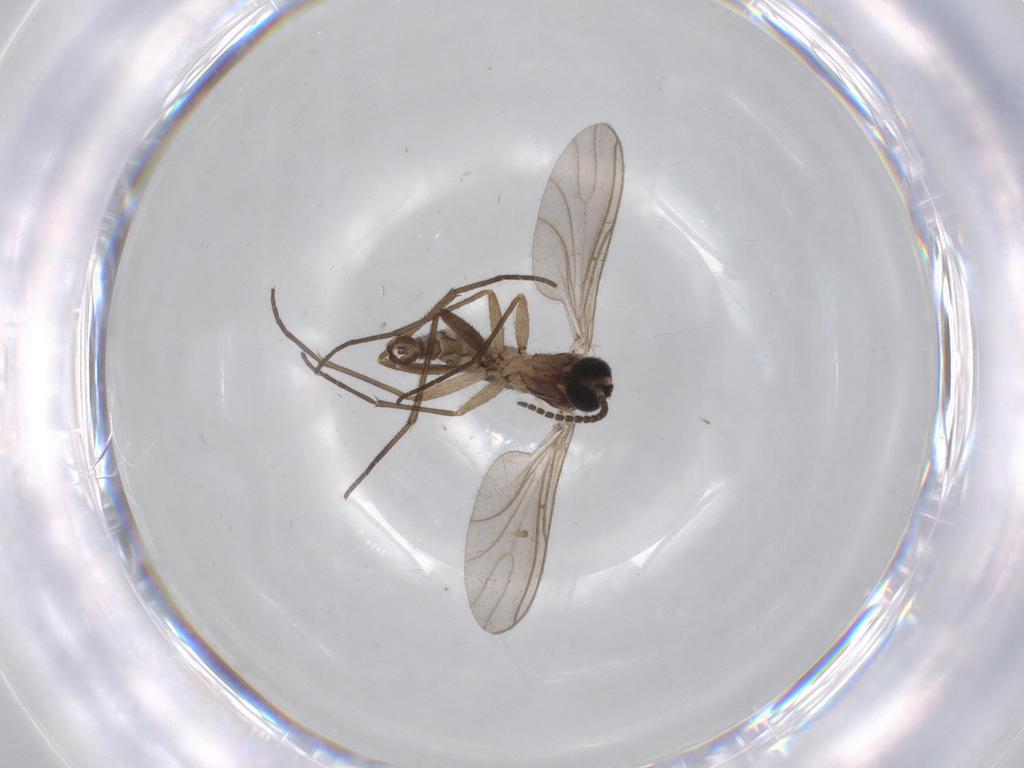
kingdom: Animalia
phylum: Arthropoda
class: Insecta
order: Diptera
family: Sciaridae
